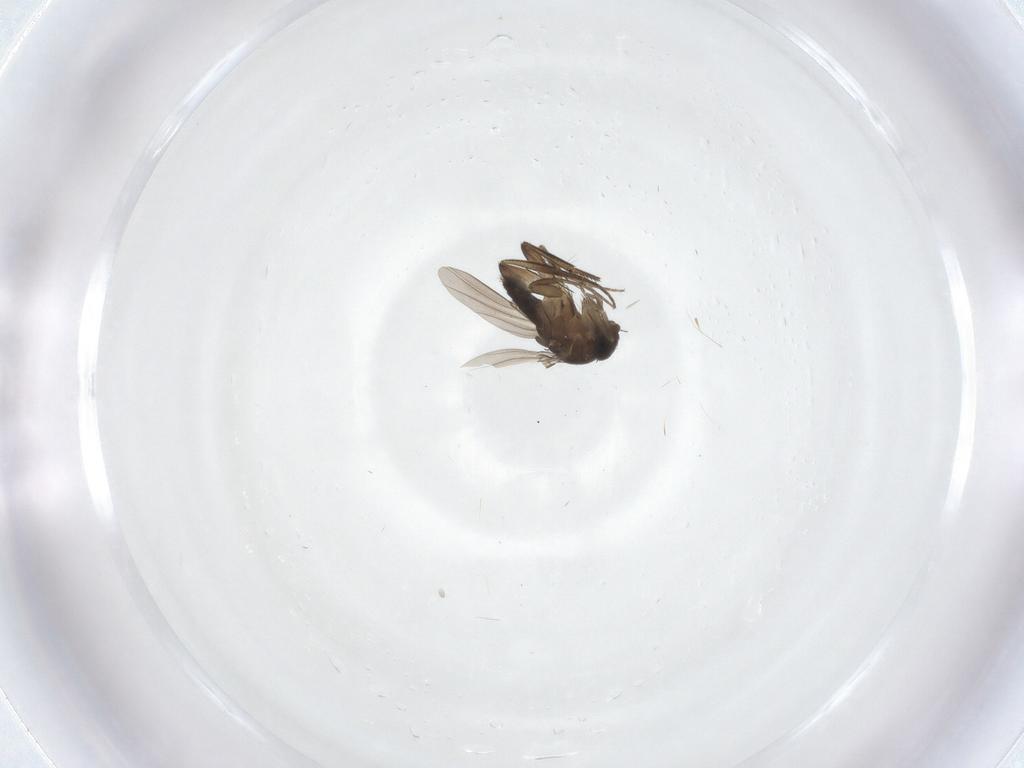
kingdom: Animalia
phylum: Arthropoda
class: Insecta
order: Diptera
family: Phoridae
